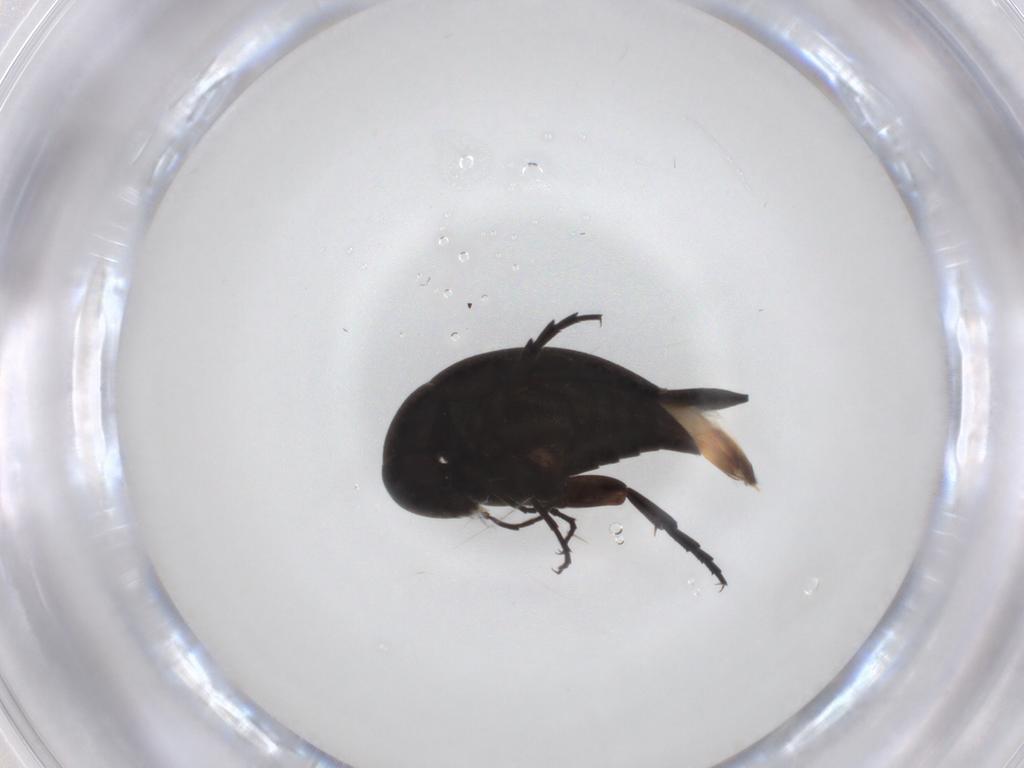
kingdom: Animalia
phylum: Arthropoda
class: Insecta
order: Coleoptera
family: Mordellidae
